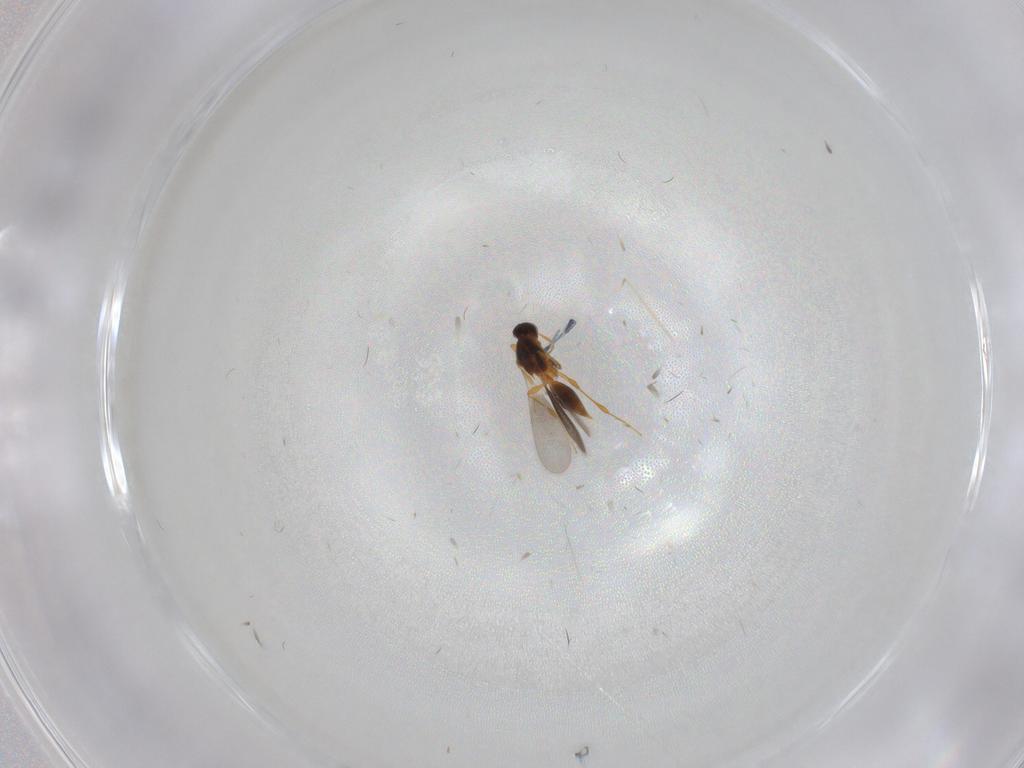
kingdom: Animalia
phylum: Arthropoda
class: Insecta
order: Hymenoptera
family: Platygastridae
